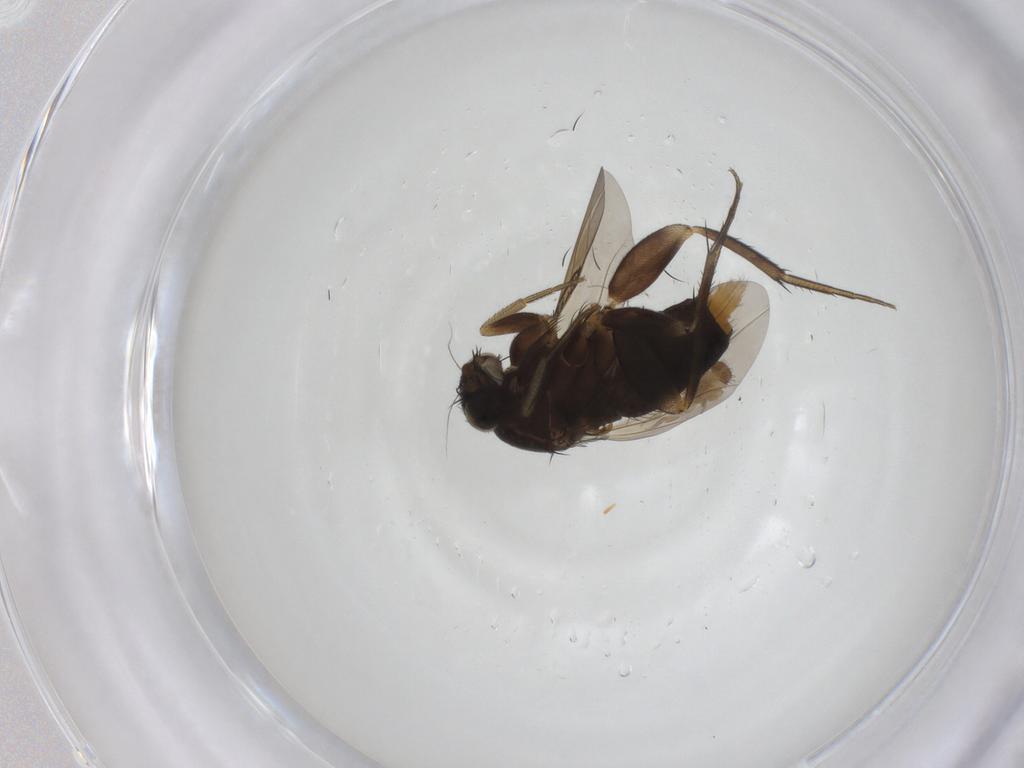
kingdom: Animalia
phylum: Arthropoda
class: Insecta
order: Diptera
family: Phoridae
